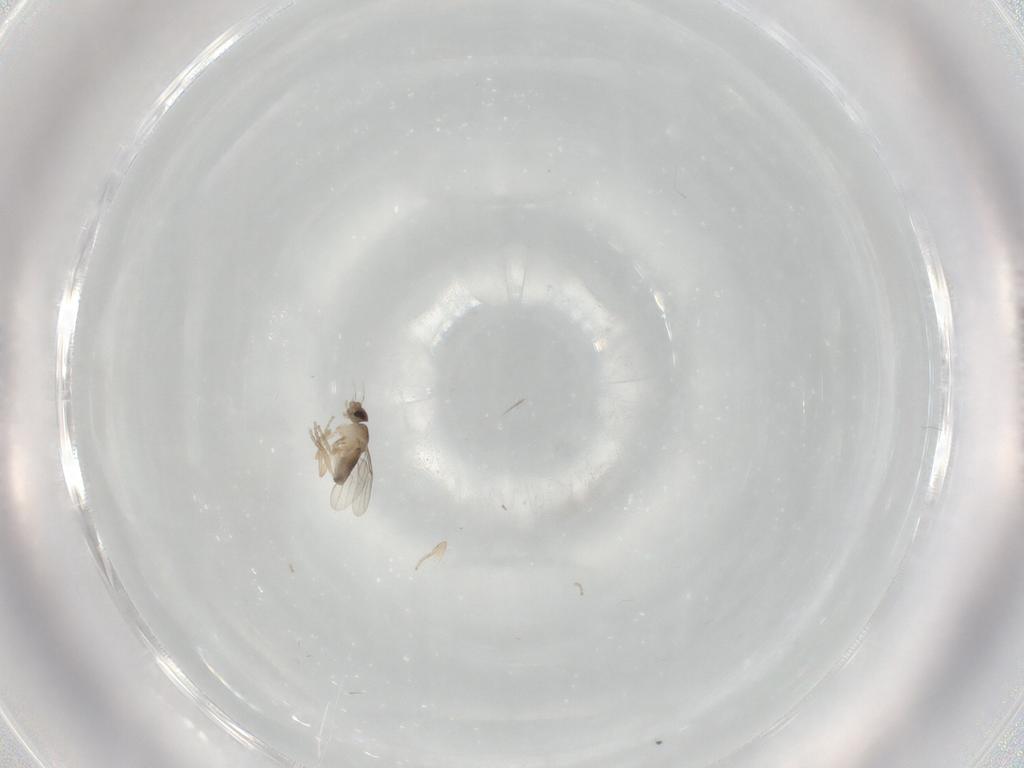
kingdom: Animalia
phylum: Arthropoda
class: Insecta
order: Diptera
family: Phoridae
